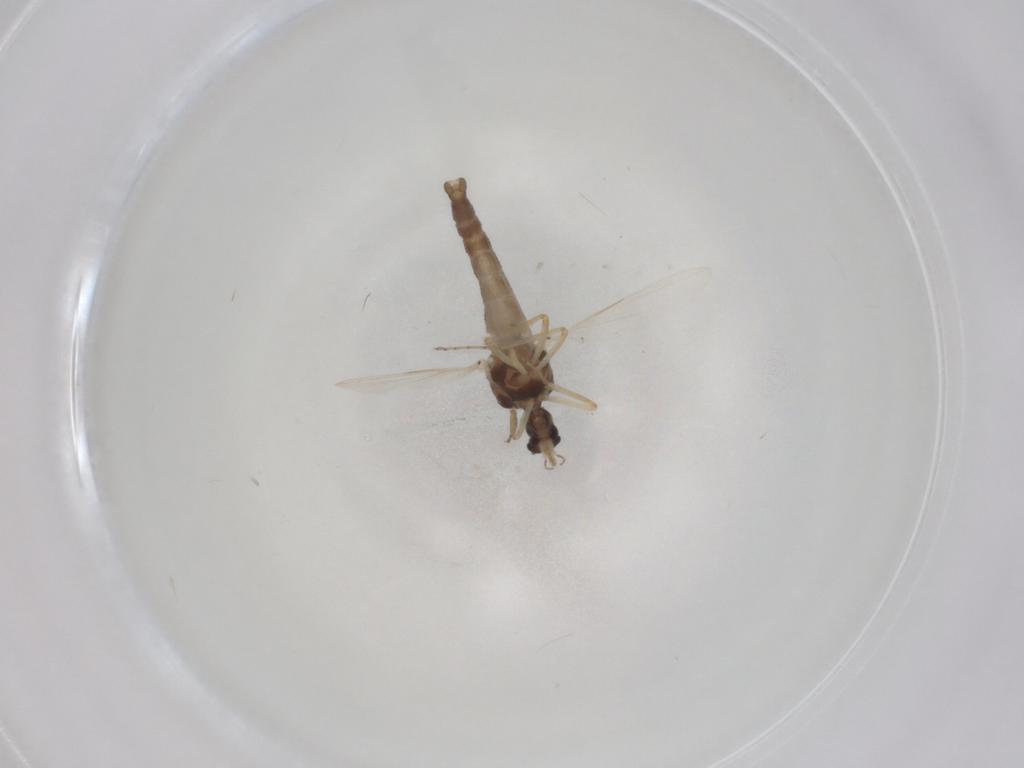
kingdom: Animalia
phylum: Arthropoda
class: Insecta
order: Diptera
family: Ceratopogonidae
